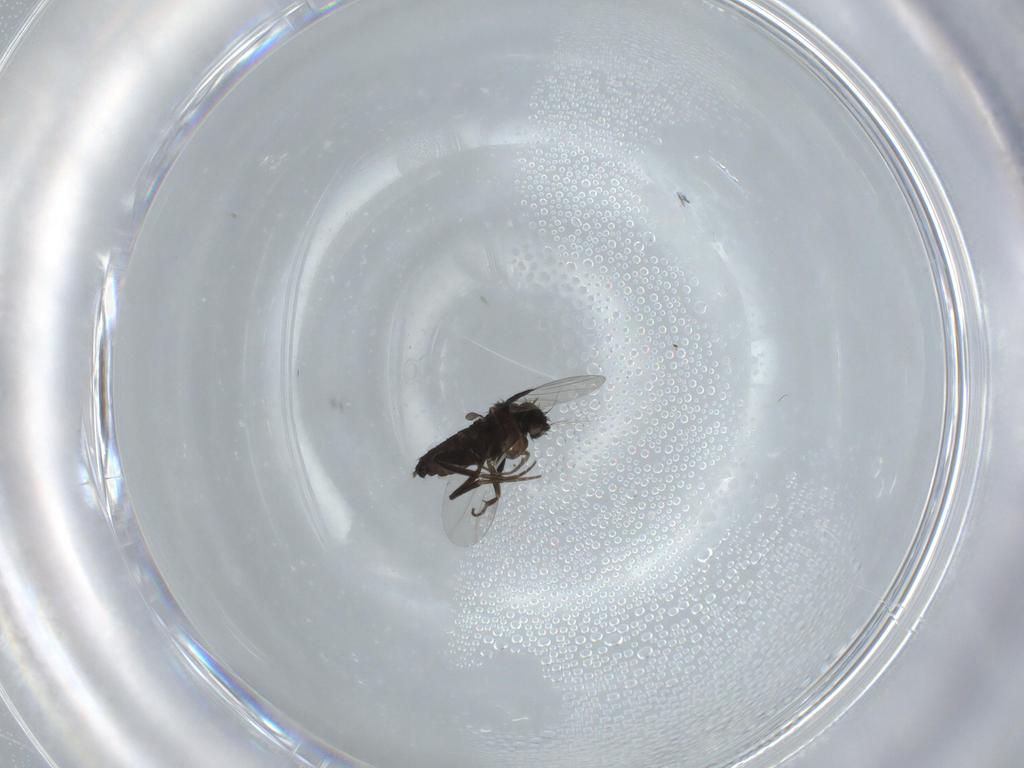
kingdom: Animalia
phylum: Arthropoda
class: Insecta
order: Diptera
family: Phoridae
